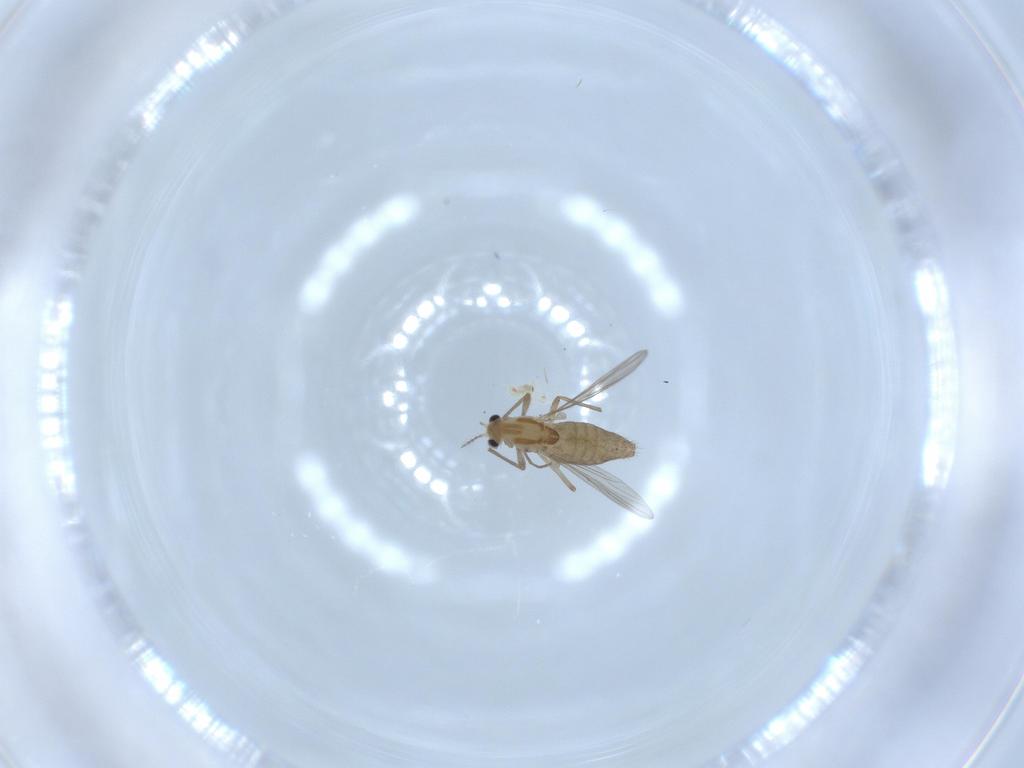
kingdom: Animalia
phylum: Arthropoda
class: Insecta
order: Diptera
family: Chironomidae
